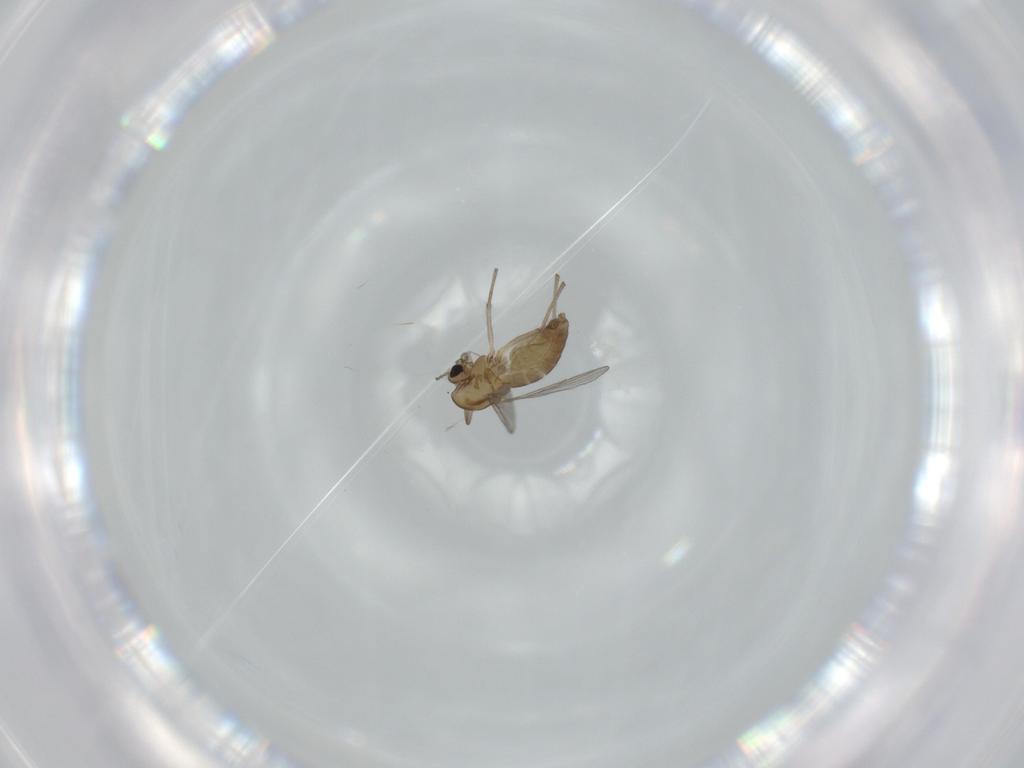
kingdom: Animalia
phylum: Arthropoda
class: Insecta
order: Diptera
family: Chironomidae
